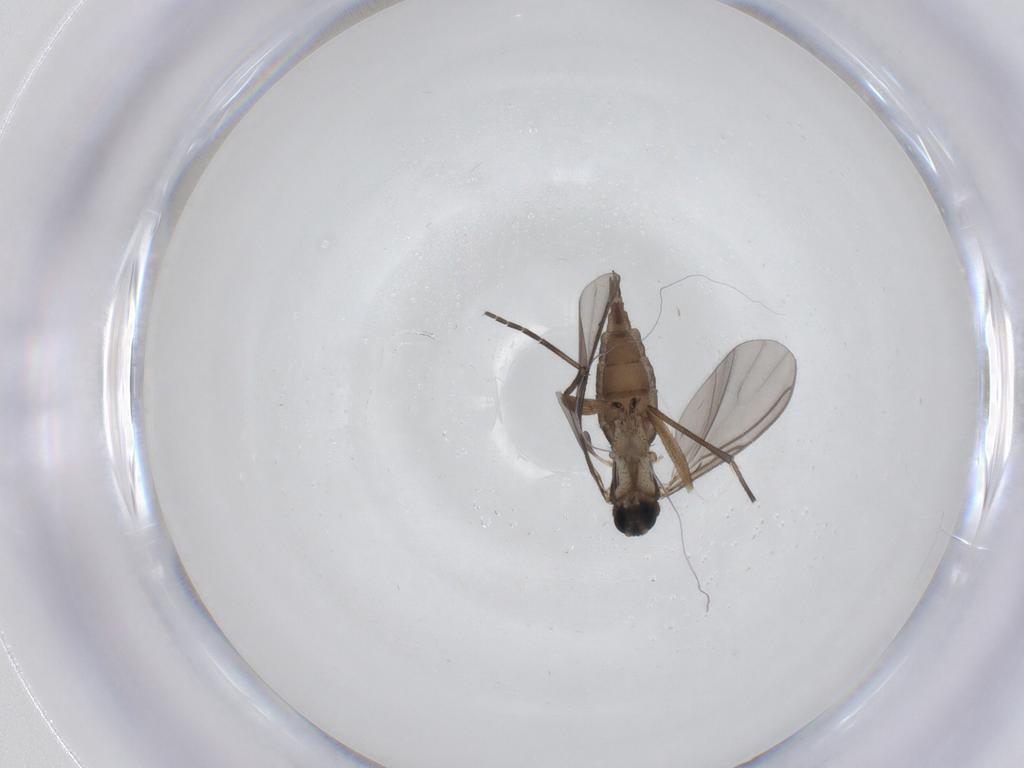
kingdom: Animalia
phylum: Arthropoda
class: Insecta
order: Diptera
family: Sciaridae
